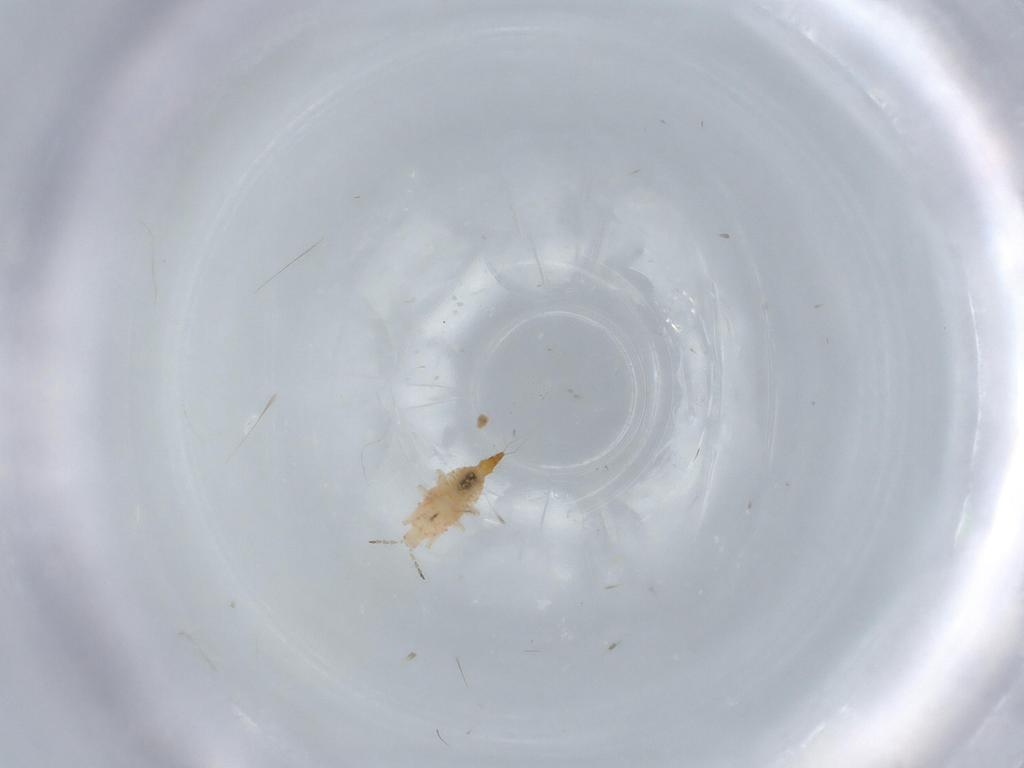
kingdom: Animalia
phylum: Arthropoda
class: Insecta
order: Thysanoptera
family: Phlaeothripidae
